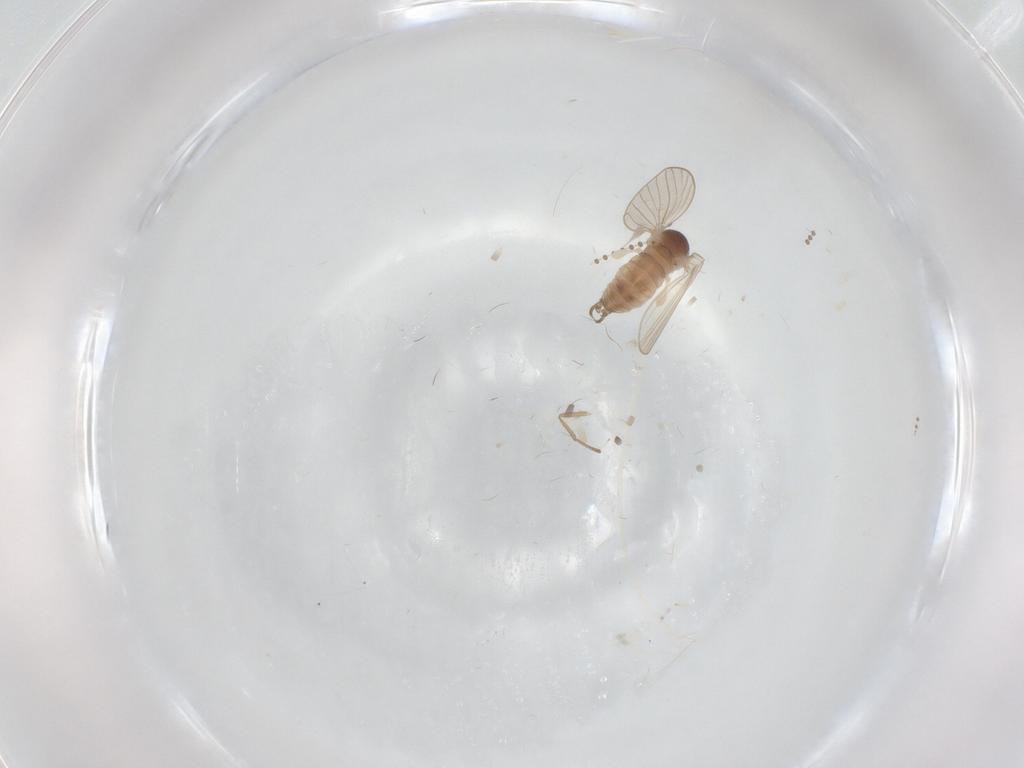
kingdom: Animalia
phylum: Arthropoda
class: Insecta
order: Diptera
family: Psychodidae
